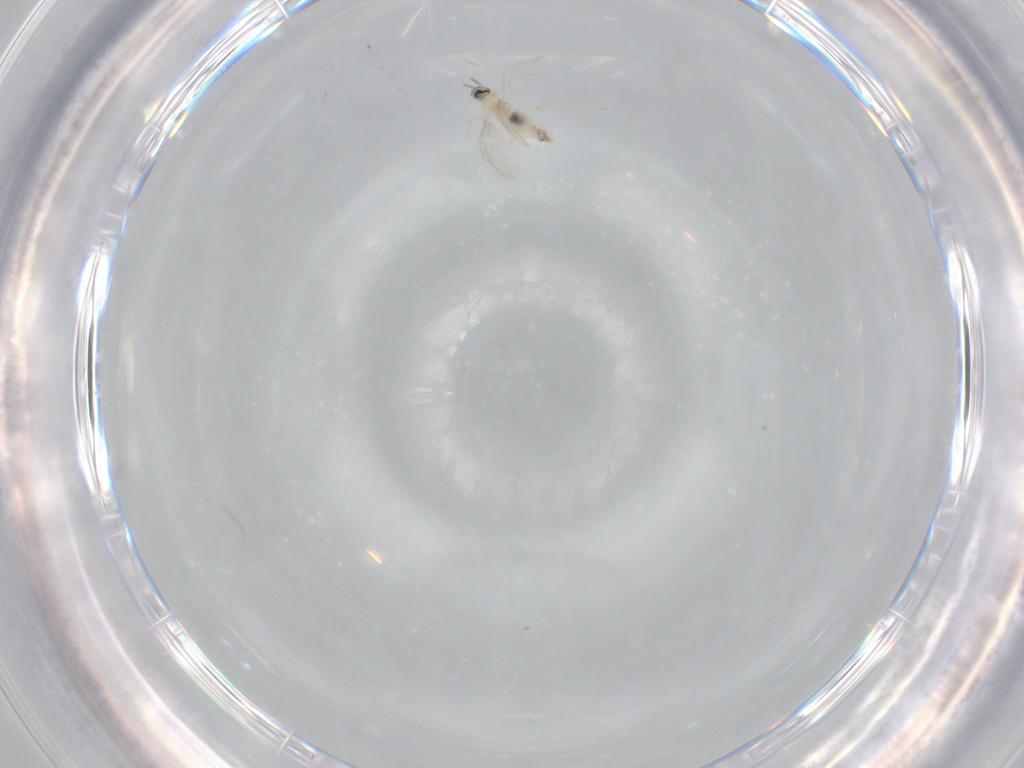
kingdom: Animalia
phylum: Arthropoda
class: Insecta
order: Diptera
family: Cecidomyiidae
